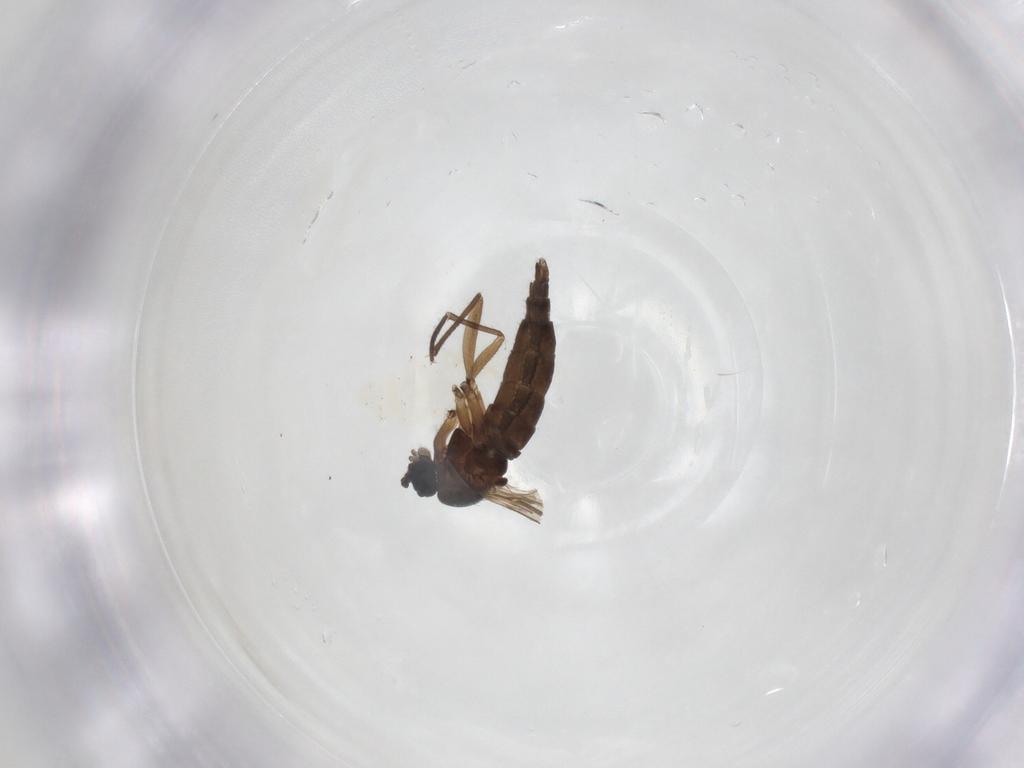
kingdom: Animalia
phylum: Arthropoda
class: Insecta
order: Diptera
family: Sciaridae
